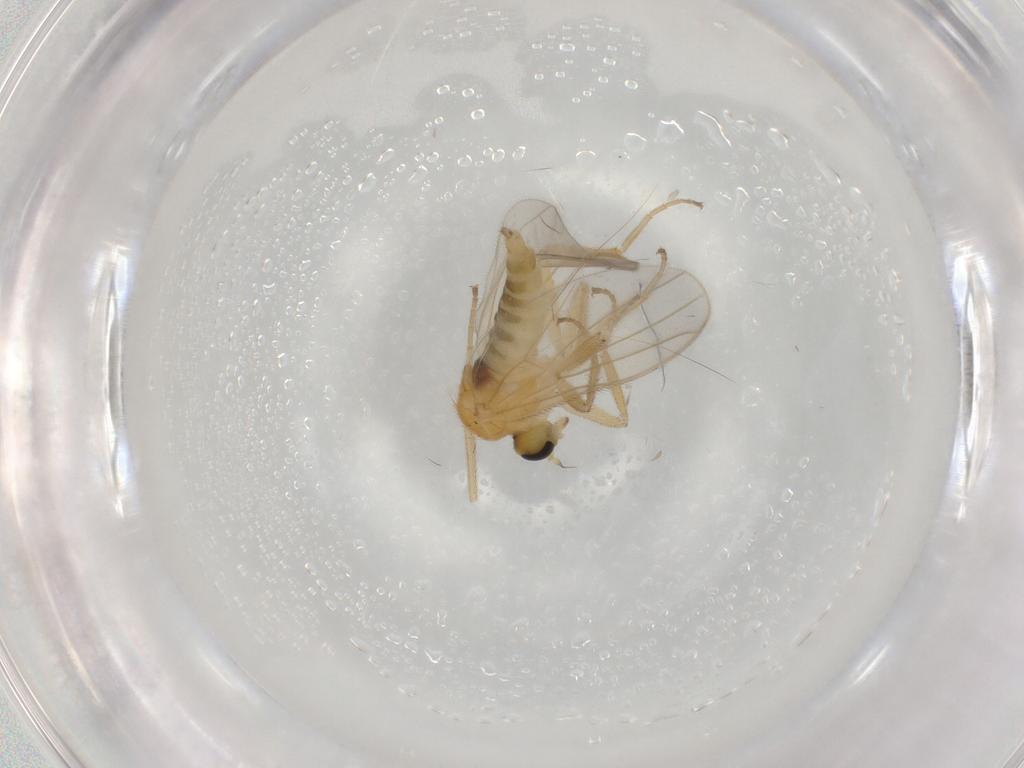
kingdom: Animalia
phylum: Arthropoda
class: Insecta
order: Diptera
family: Hybotidae
